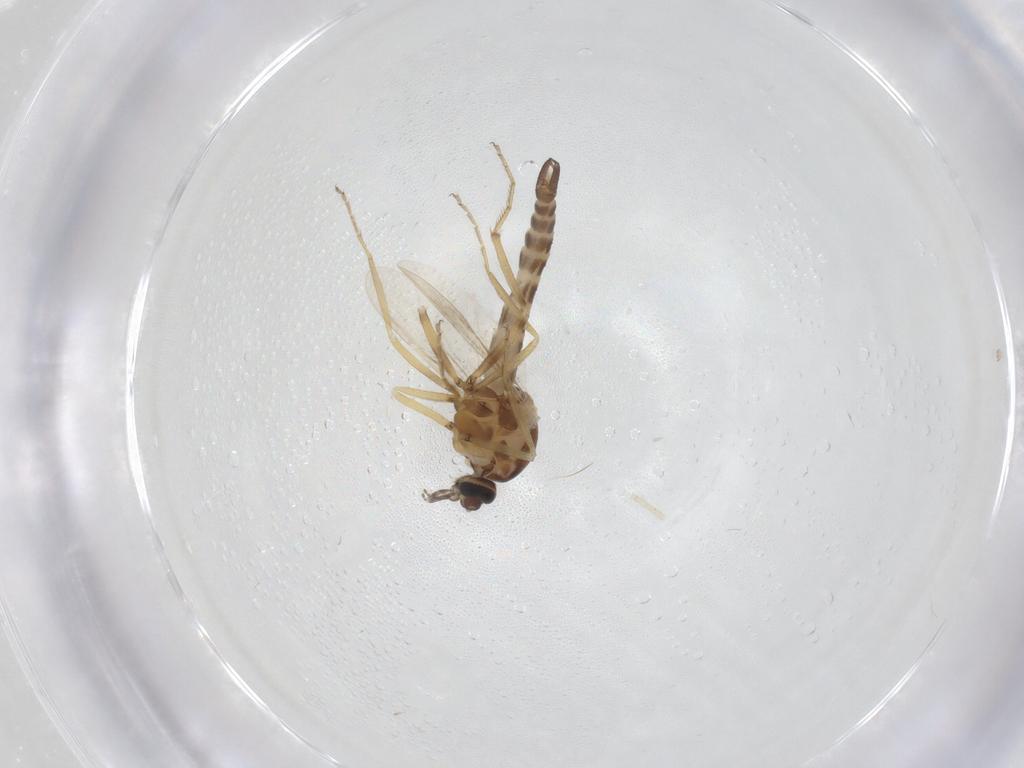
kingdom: Animalia
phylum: Arthropoda
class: Insecta
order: Diptera
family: Ceratopogonidae
